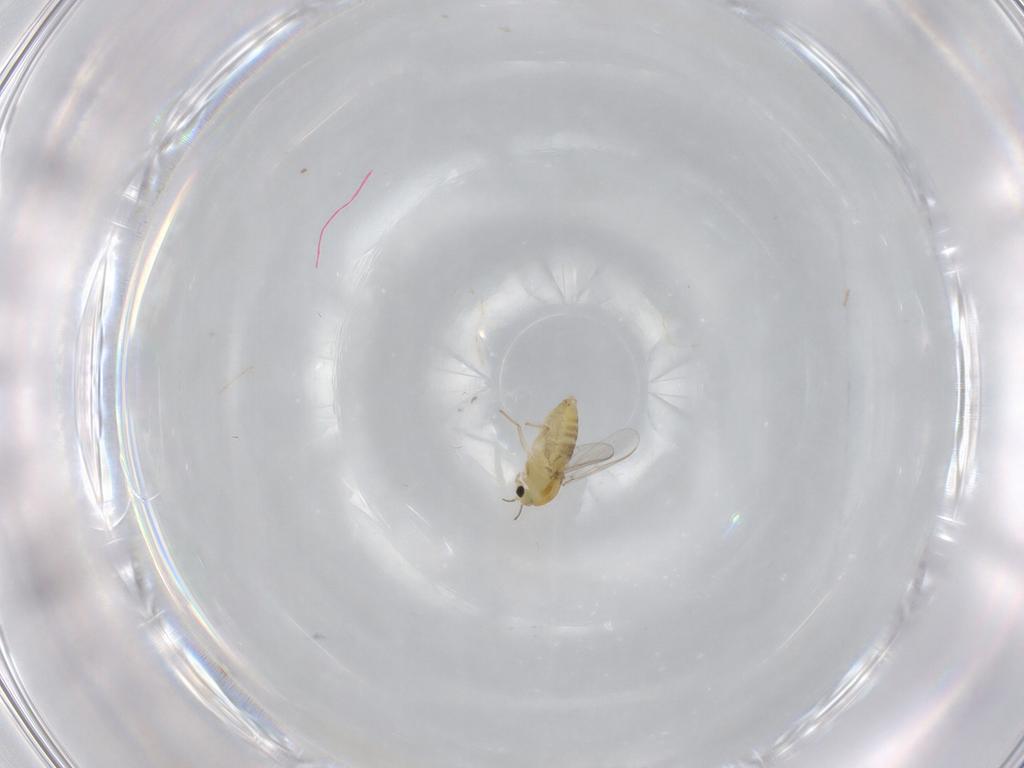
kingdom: Animalia
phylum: Arthropoda
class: Insecta
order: Diptera
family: Chironomidae
